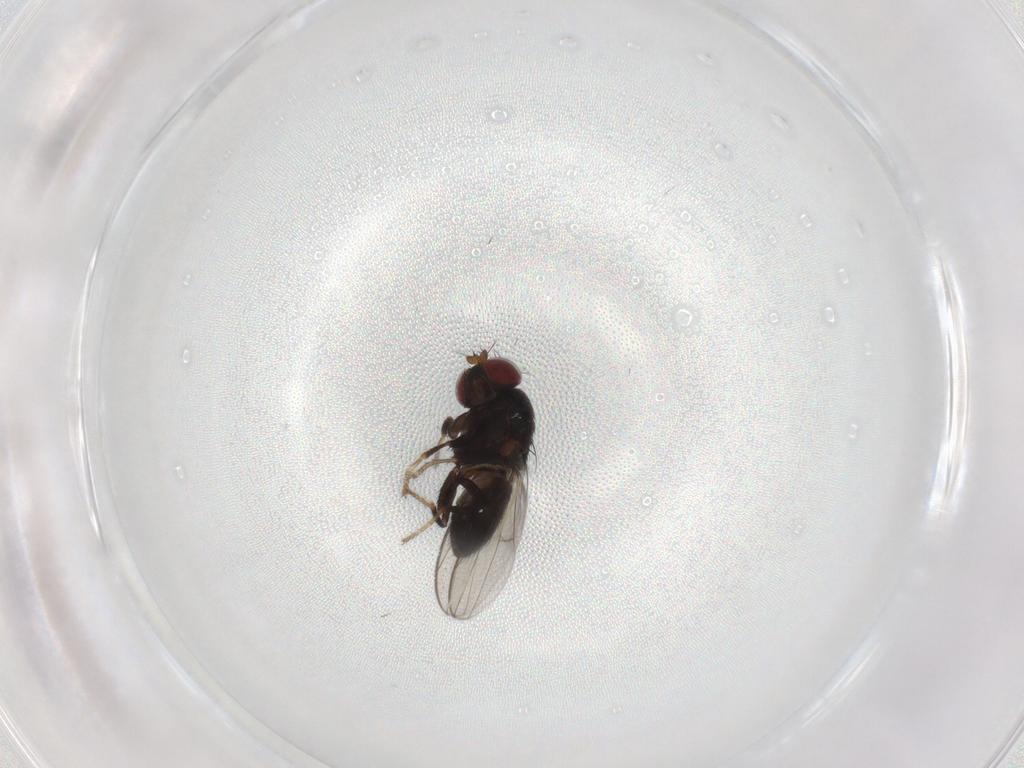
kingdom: Animalia
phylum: Arthropoda
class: Insecta
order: Diptera
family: Ephydridae
